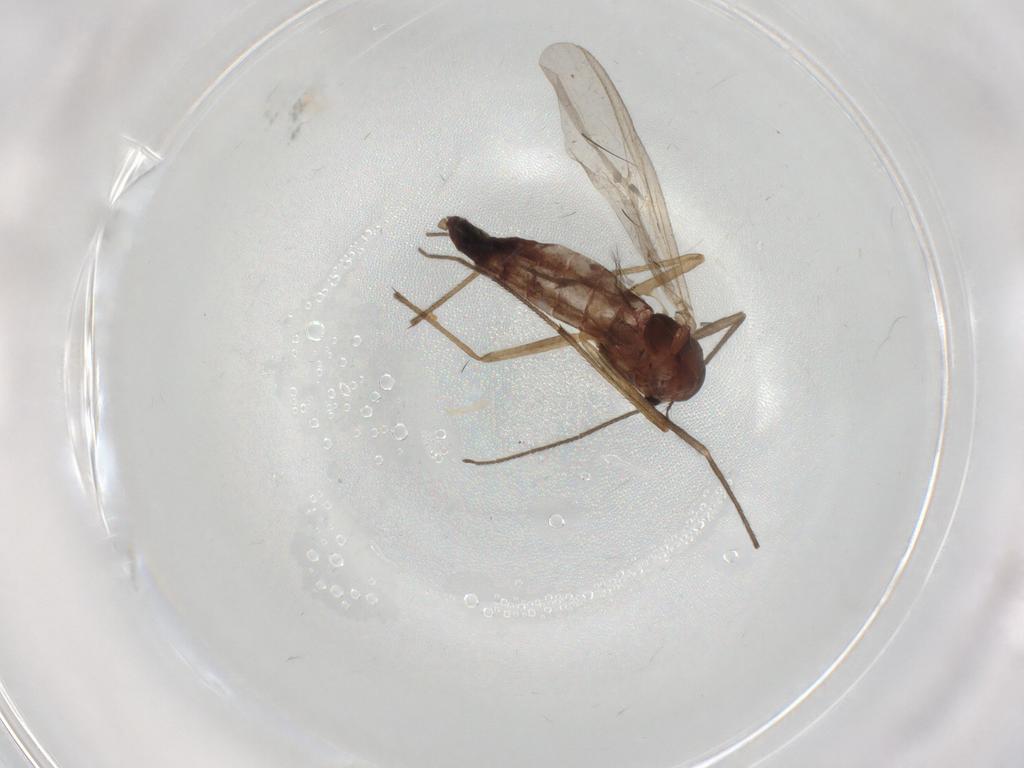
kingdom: Animalia
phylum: Arthropoda
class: Insecta
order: Diptera
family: Chironomidae
